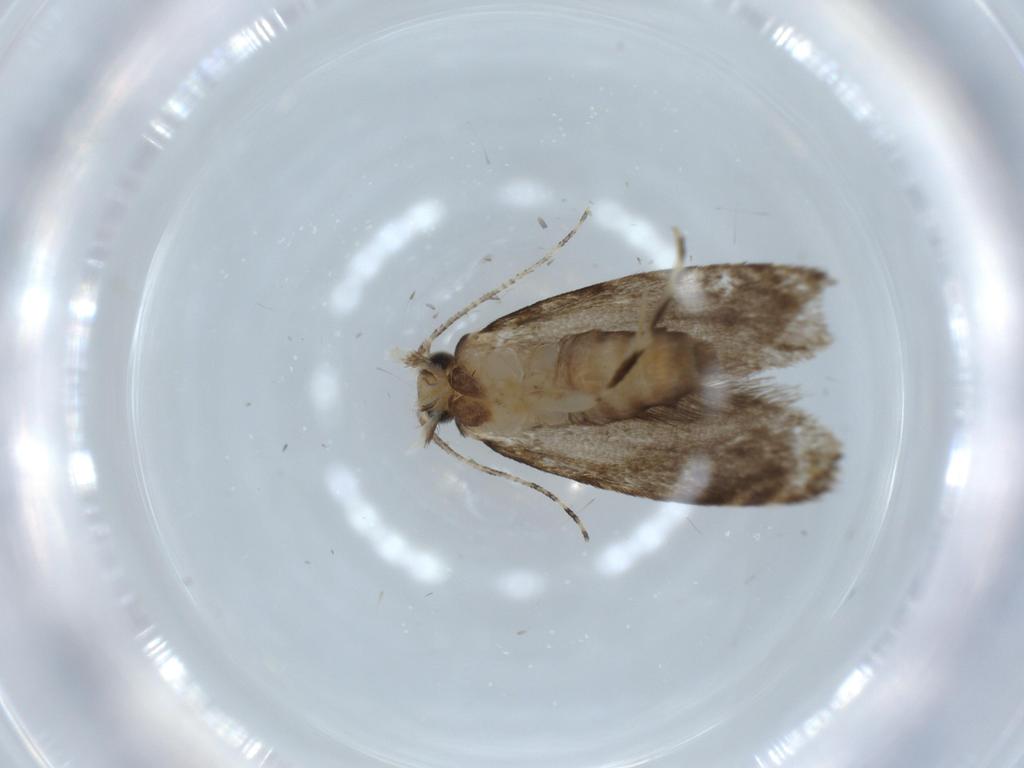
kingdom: Animalia
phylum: Arthropoda
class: Insecta
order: Lepidoptera
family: Tineidae
